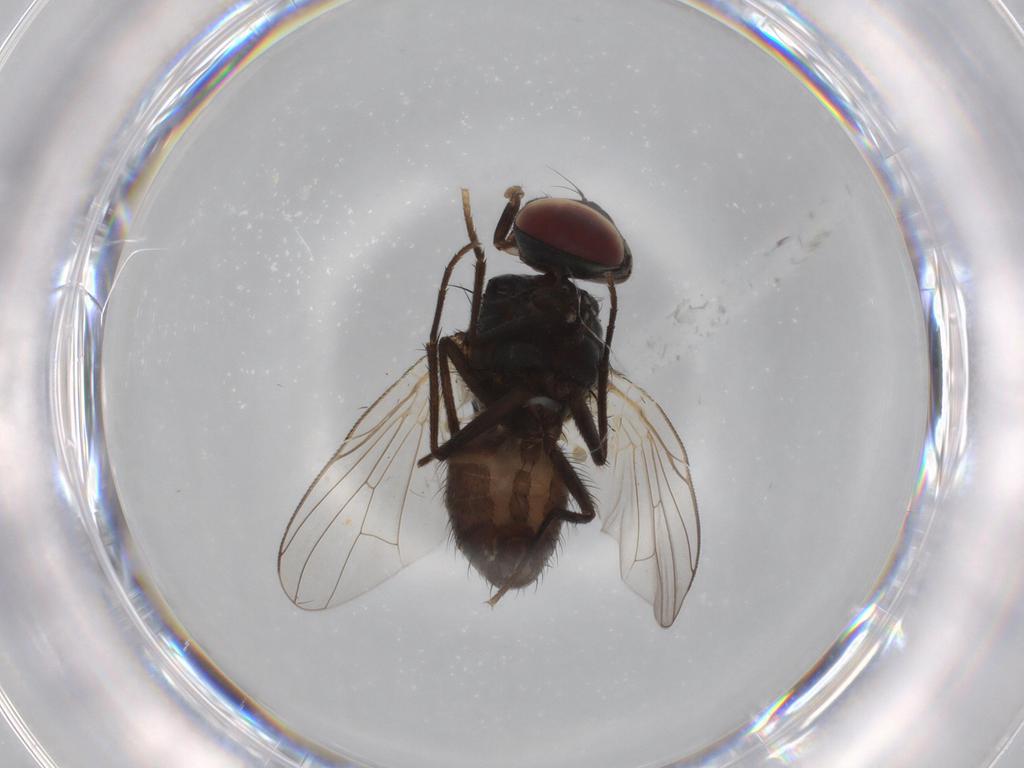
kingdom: Animalia
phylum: Arthropoda
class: Insecta
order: Diptera
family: Muscidae
